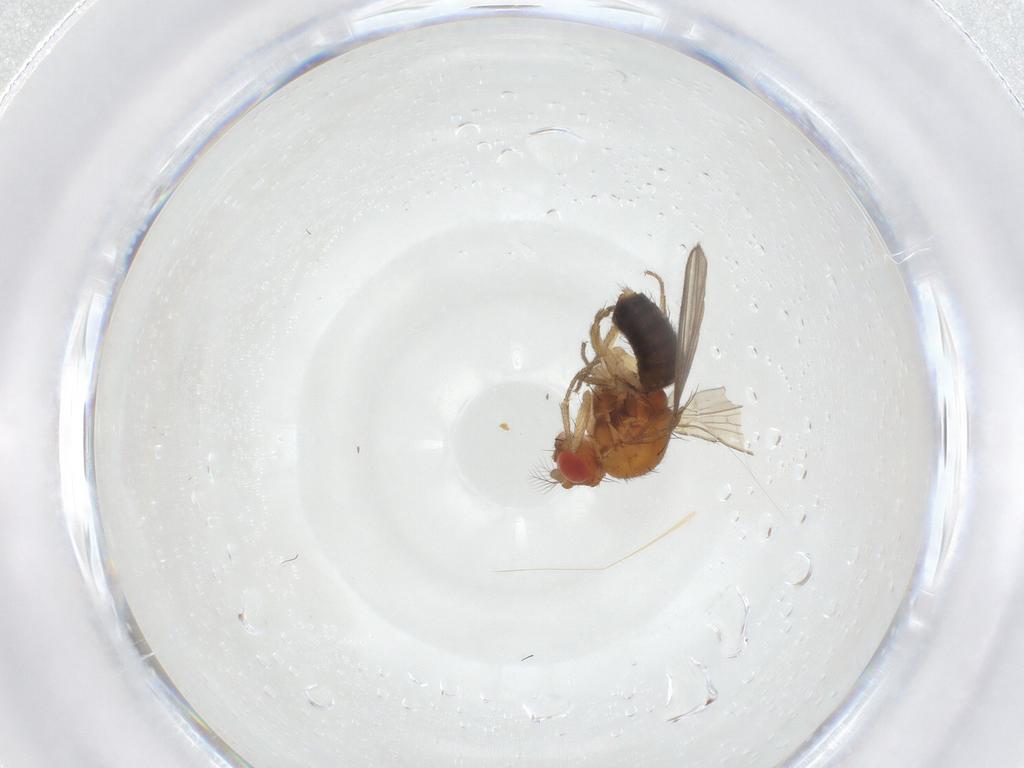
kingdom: Animalia
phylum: Arthropoda
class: Insecta
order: Diptera
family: Drosophilidae
